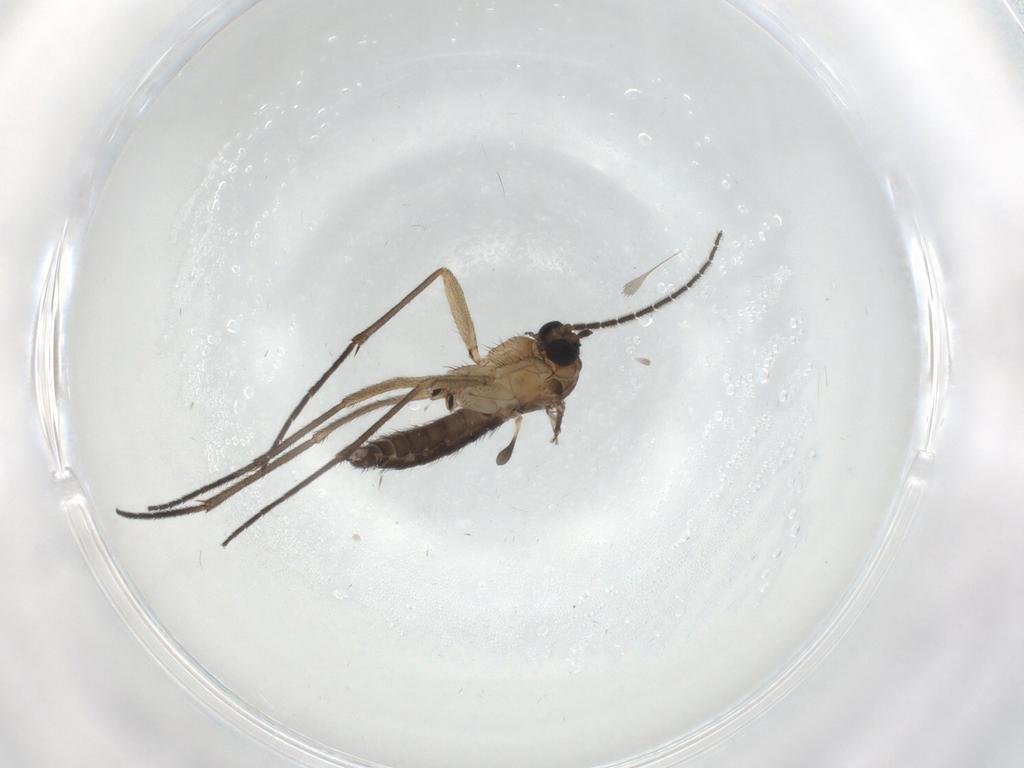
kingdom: Animalia
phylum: Arthropoda
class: Insecta
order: Diptera
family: Sciaridae
